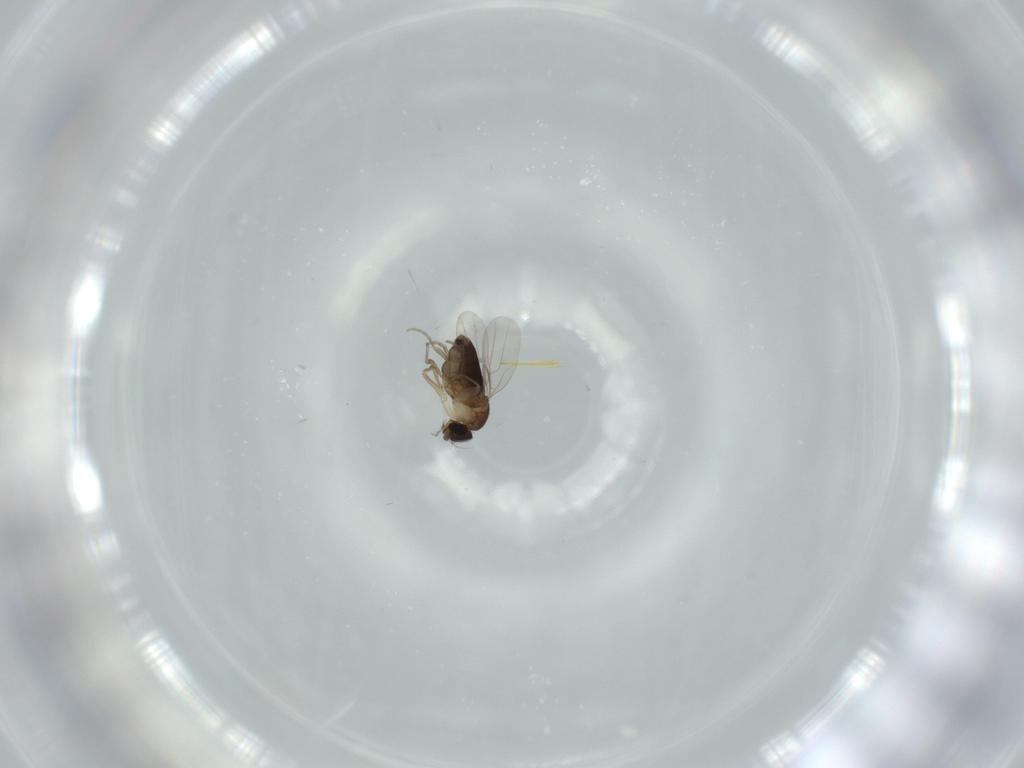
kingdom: Animalia
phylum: Arthropoda
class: Insecta
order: Diptera
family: Phoridae
